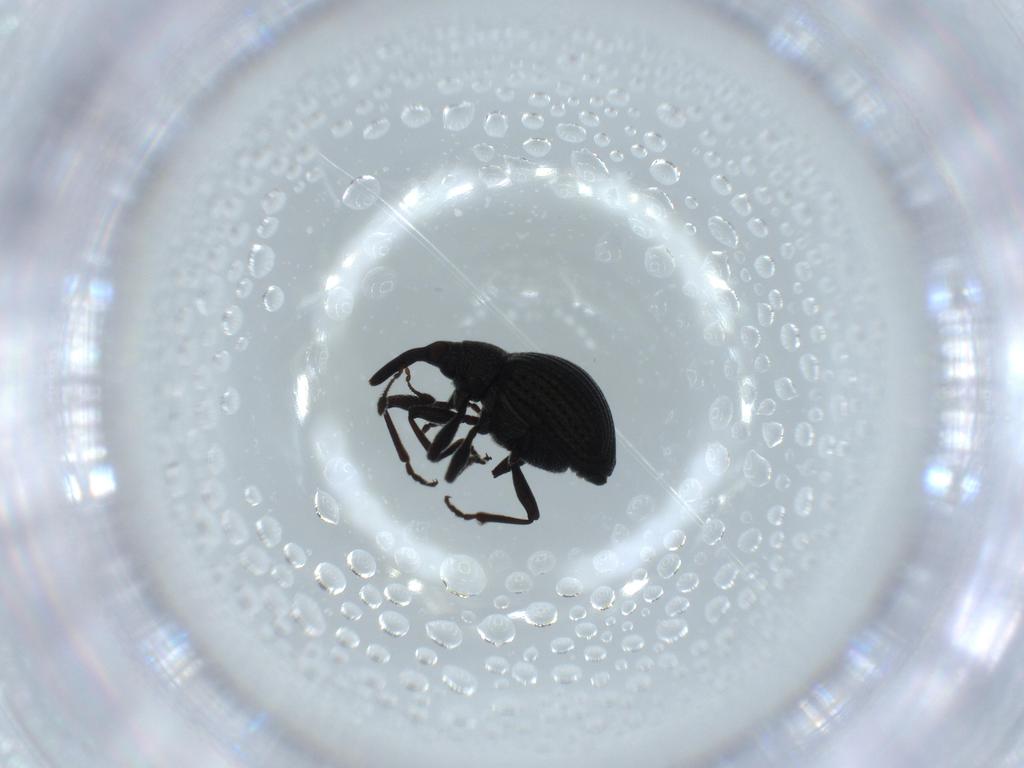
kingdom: Animalia
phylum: Arthropoda
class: Insecta
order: Coleoptera
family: Brentidae
